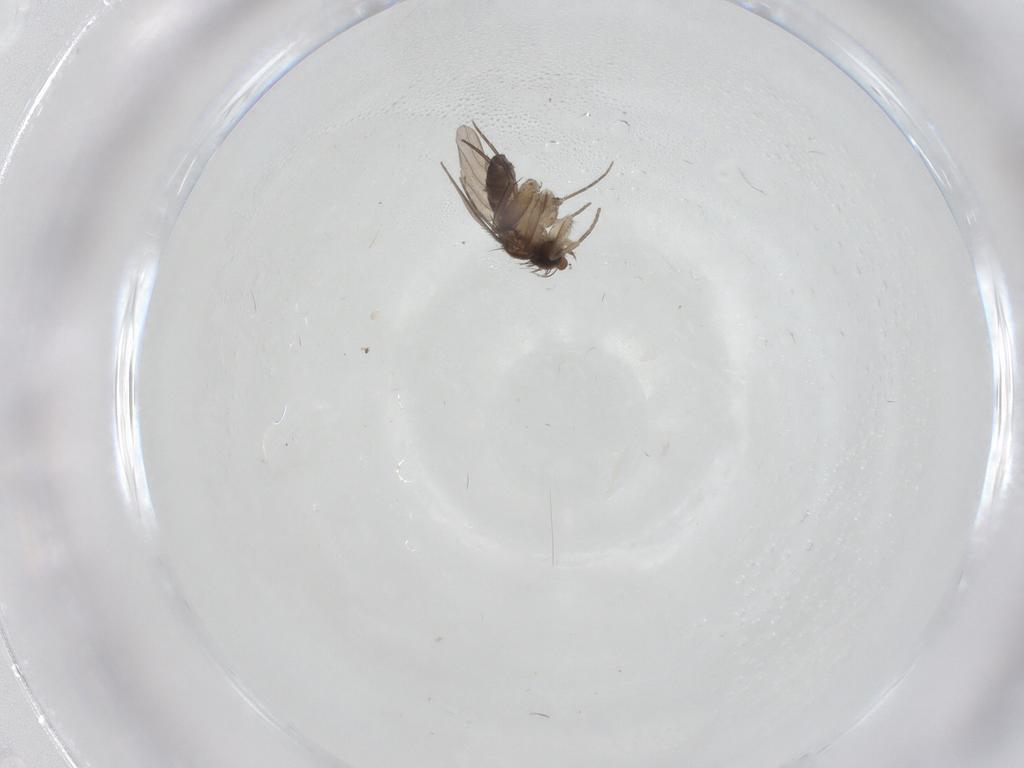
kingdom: Animalia
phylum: Arthropoda
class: Insecta
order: Diptera
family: Phoridae
